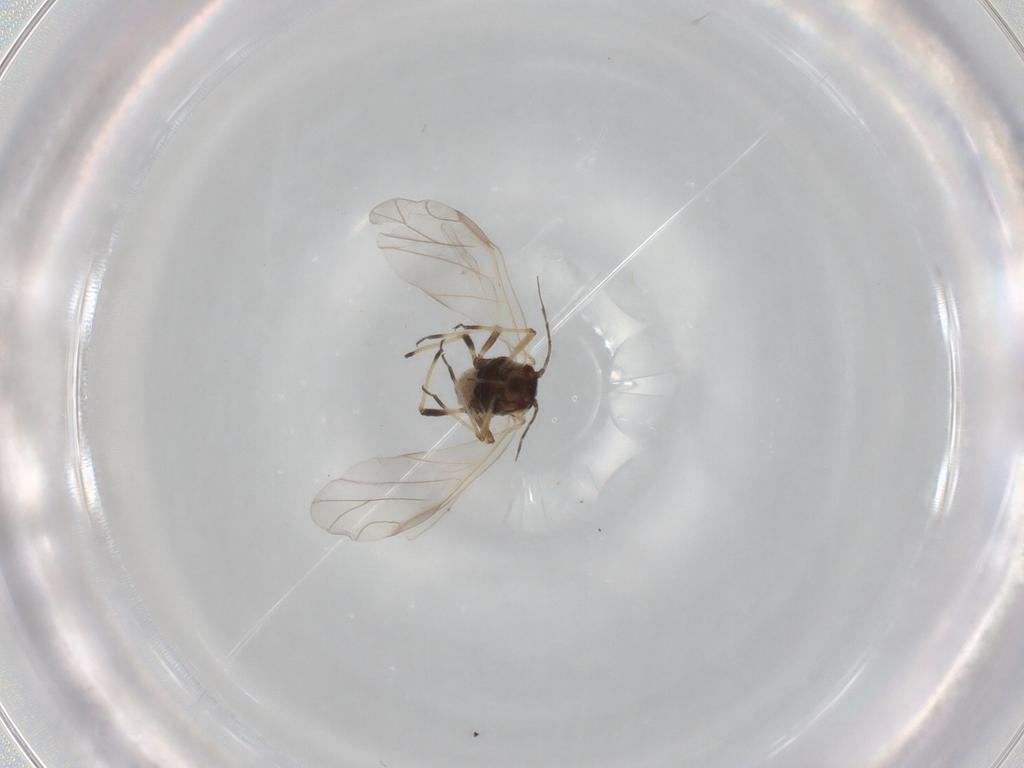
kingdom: Animalia
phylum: Arthropoda
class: Insecta
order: Hemiptera
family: Aphididae
